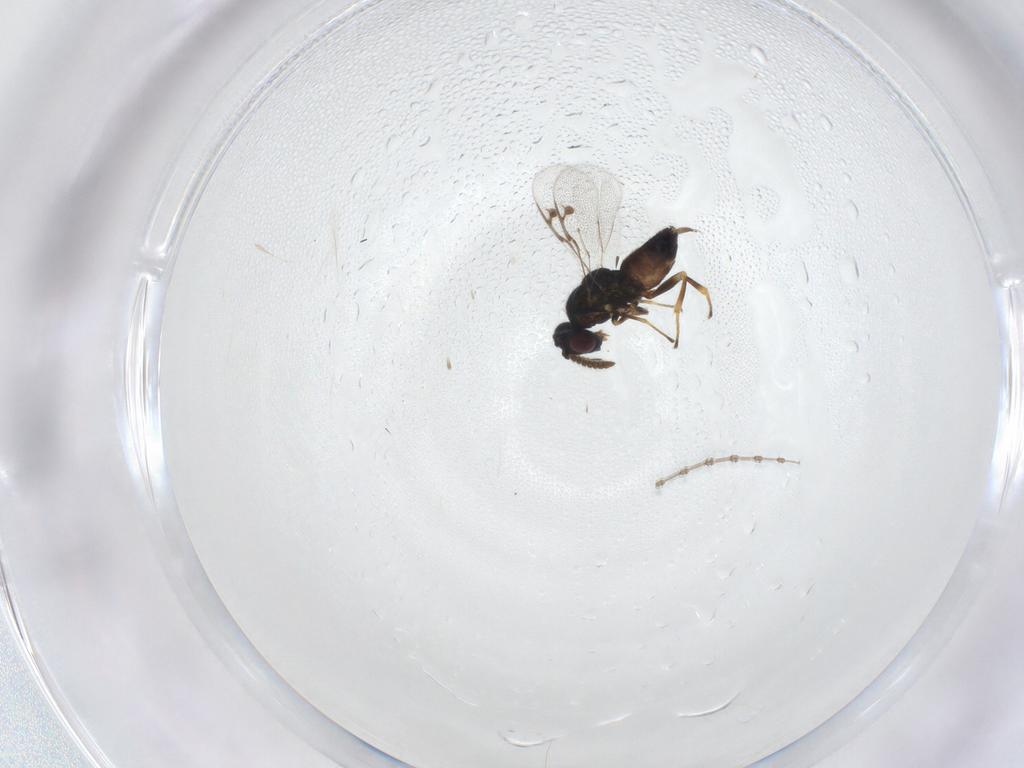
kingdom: Animalia
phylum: Arthropoda
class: Insecta
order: Hymenoptera
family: Pirenidae
